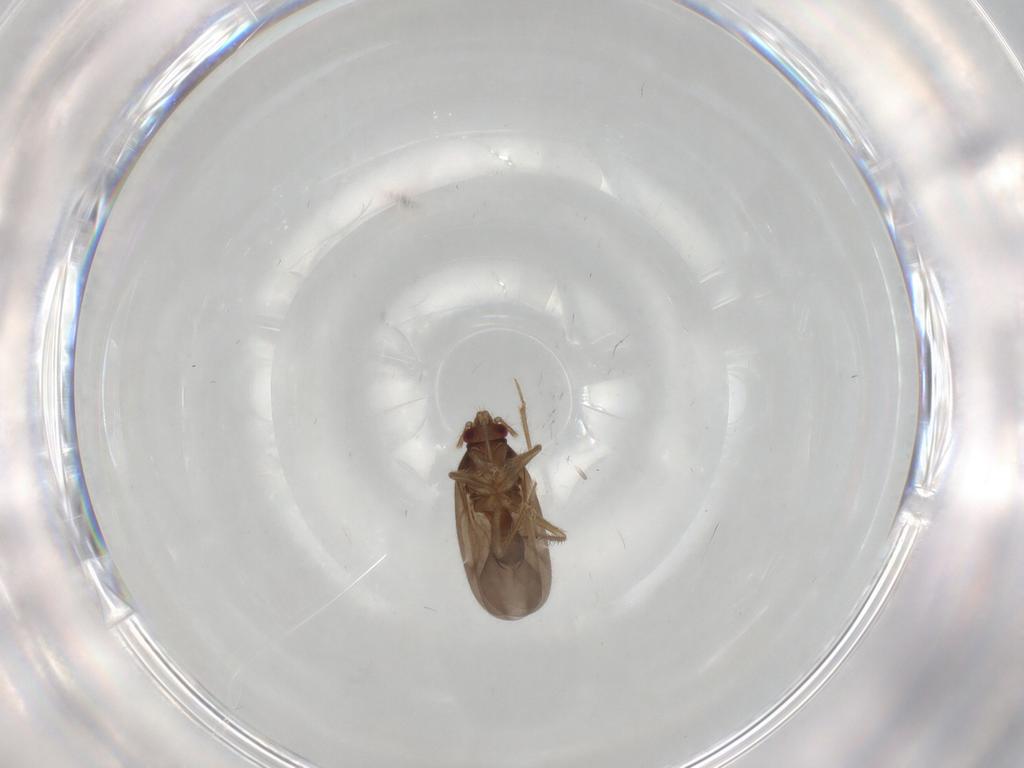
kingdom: Animalia
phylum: Arthropoda
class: Insecta
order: Hemiptera
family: Ceratocombidae
